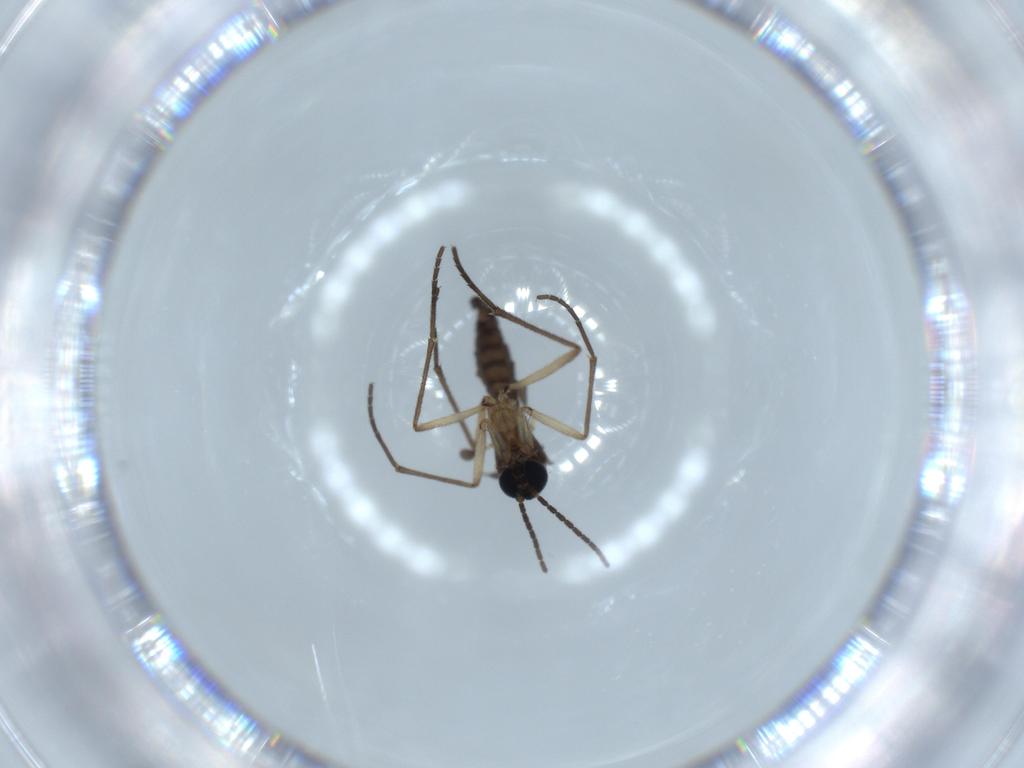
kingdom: Animalia
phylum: Arthropoda
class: Insecta
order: Diptera
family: Sciaridae
